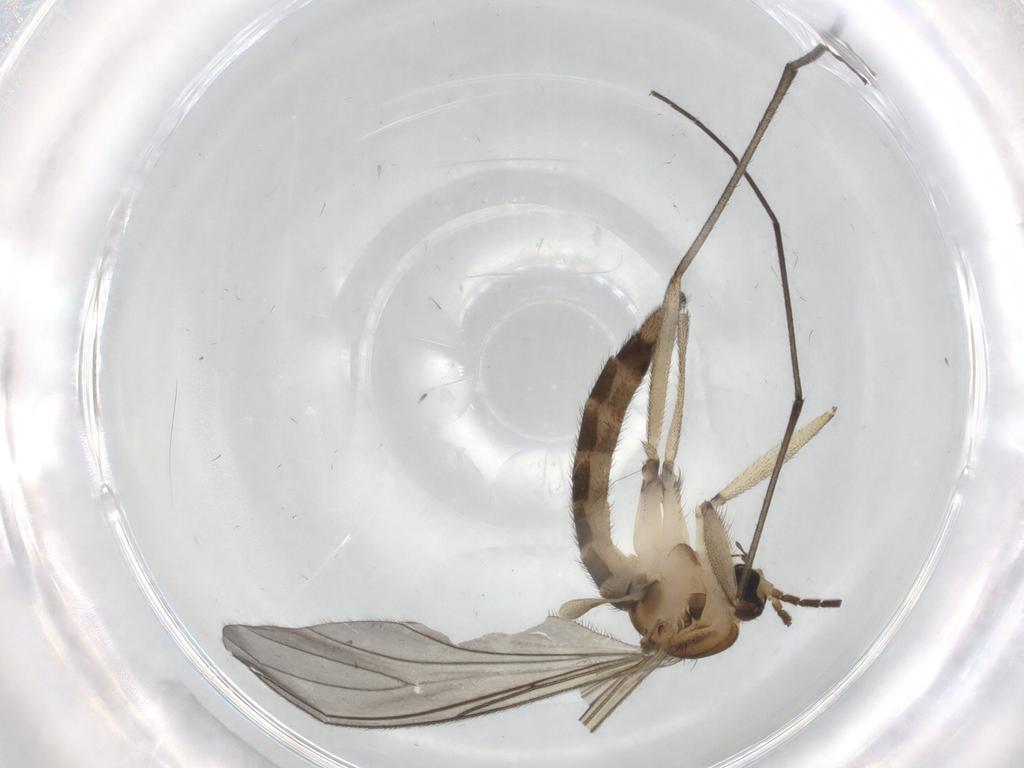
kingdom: Animalia
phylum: Arthropoda
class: Insecta
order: Diptera
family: Sciaridae
